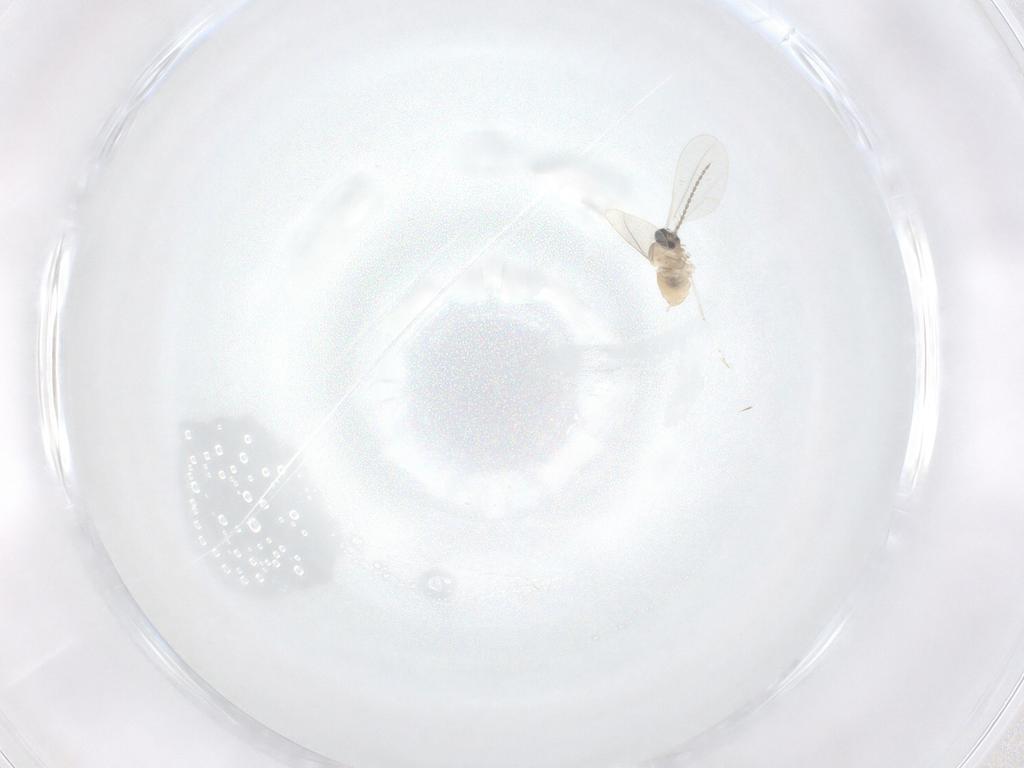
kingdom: Animalia
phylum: Arthropoda
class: Insecta
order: Diptera
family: Cecidomyiidae
